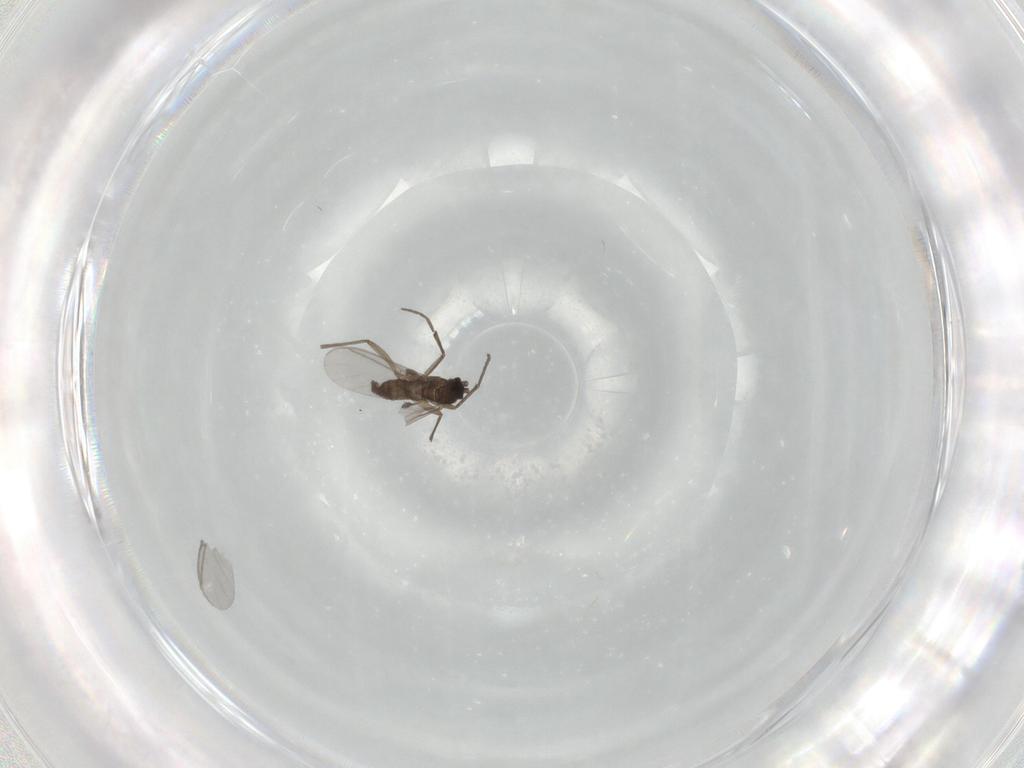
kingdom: Animalia
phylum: Arthropoda
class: Insecta
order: Diptera
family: Sciaridae
